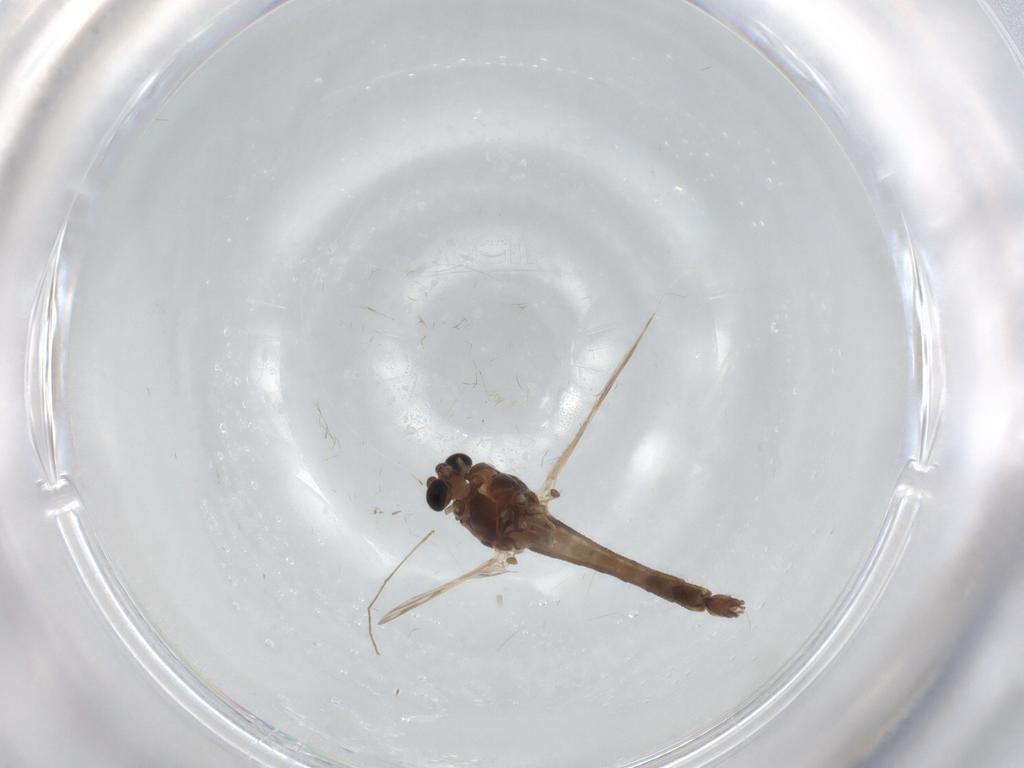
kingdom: Animalia
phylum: Arthropoda
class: Insecta
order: Diptera
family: Chironomidae
